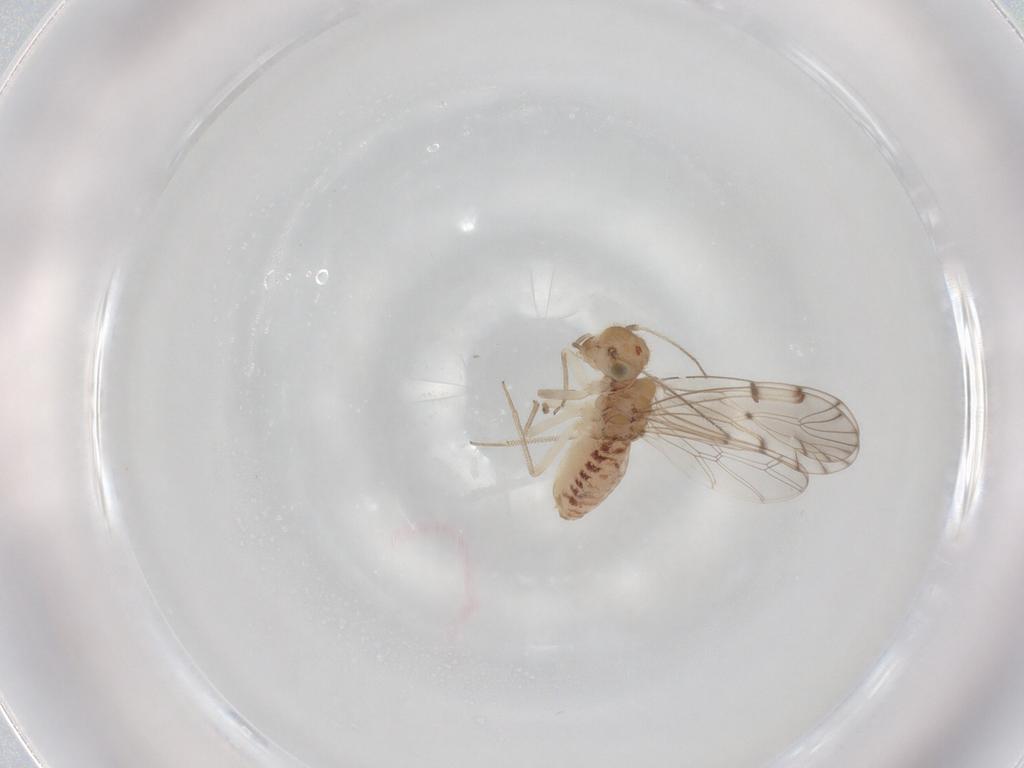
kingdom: Animalia
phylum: Arthropoda
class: Insecta
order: Psocodea
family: Ectopsocidae
